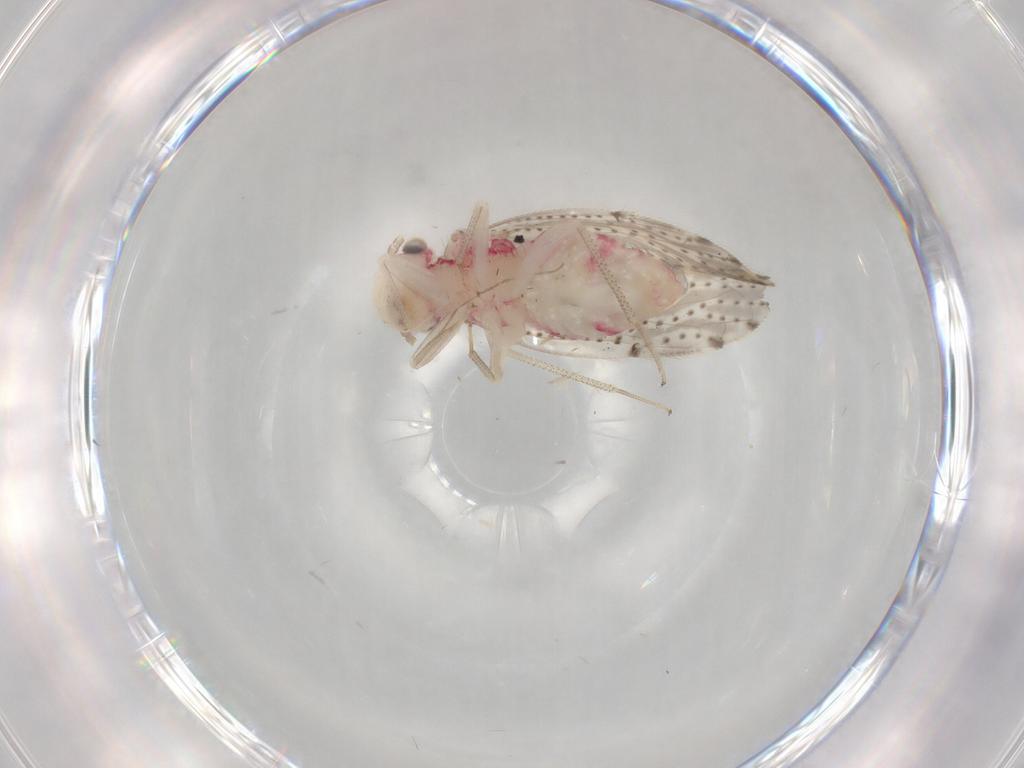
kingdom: Animalia
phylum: Arthropoda
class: Insecta
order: Psocodea
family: Hemipsocidae
